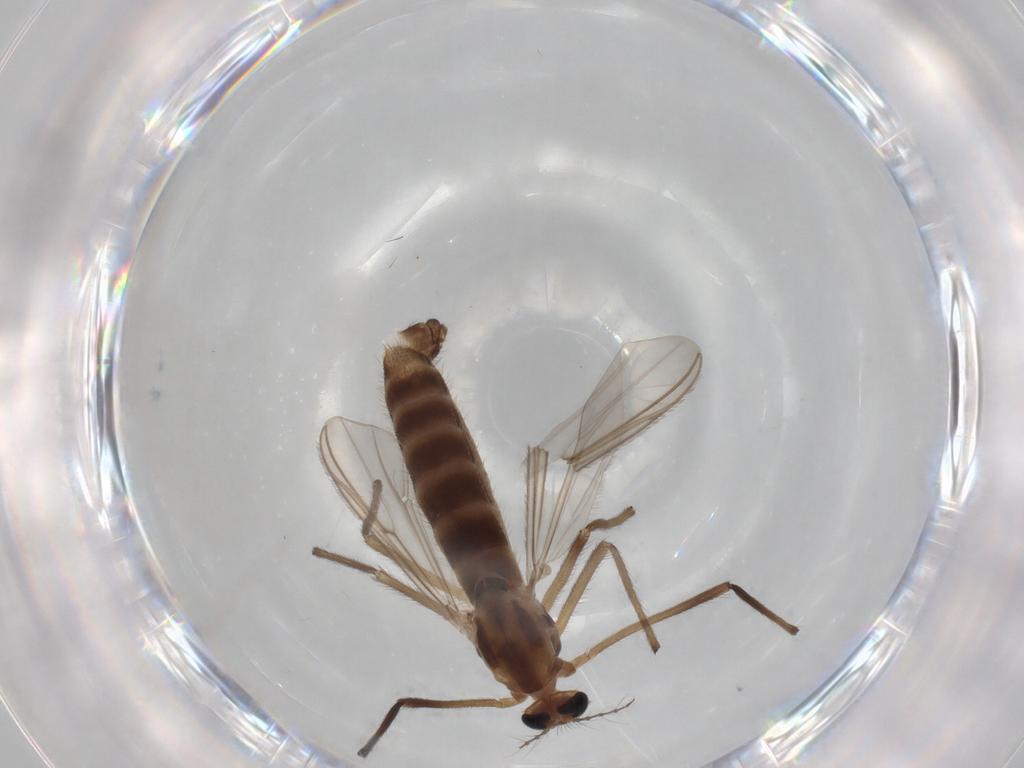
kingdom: Animalia
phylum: Arthropoda
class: Insecta
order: Diptera
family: Chironomidae
